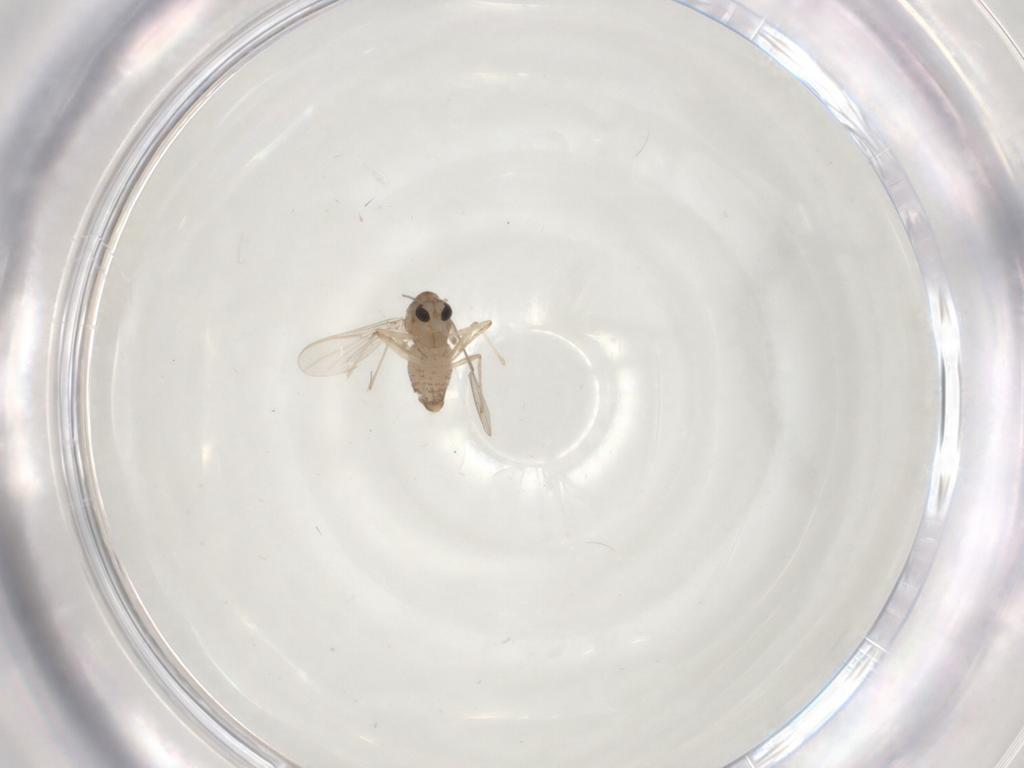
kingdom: Animalia
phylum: Arthropoda
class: Insecta
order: Diptera
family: Chironomidae
